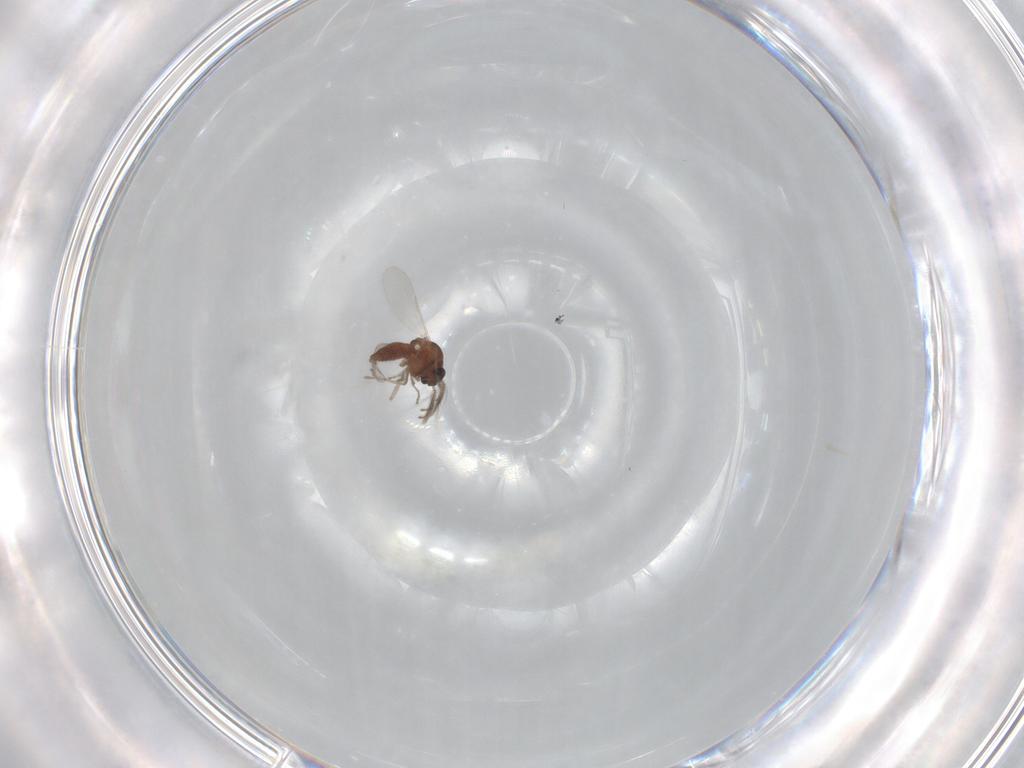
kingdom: Animalia
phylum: Arthropoda
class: Insecta
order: Diptera
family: Ceratopogonidae
